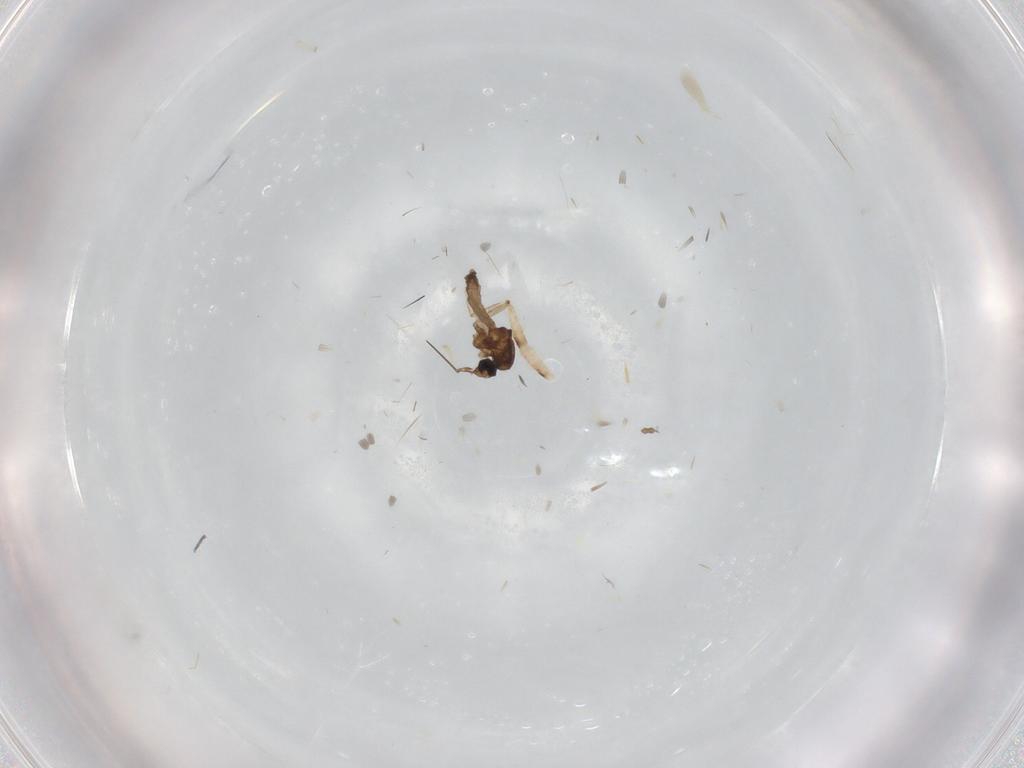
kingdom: Animalia
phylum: Arthropoda
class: Insecta
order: Diptera
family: Ceratopogonidae
